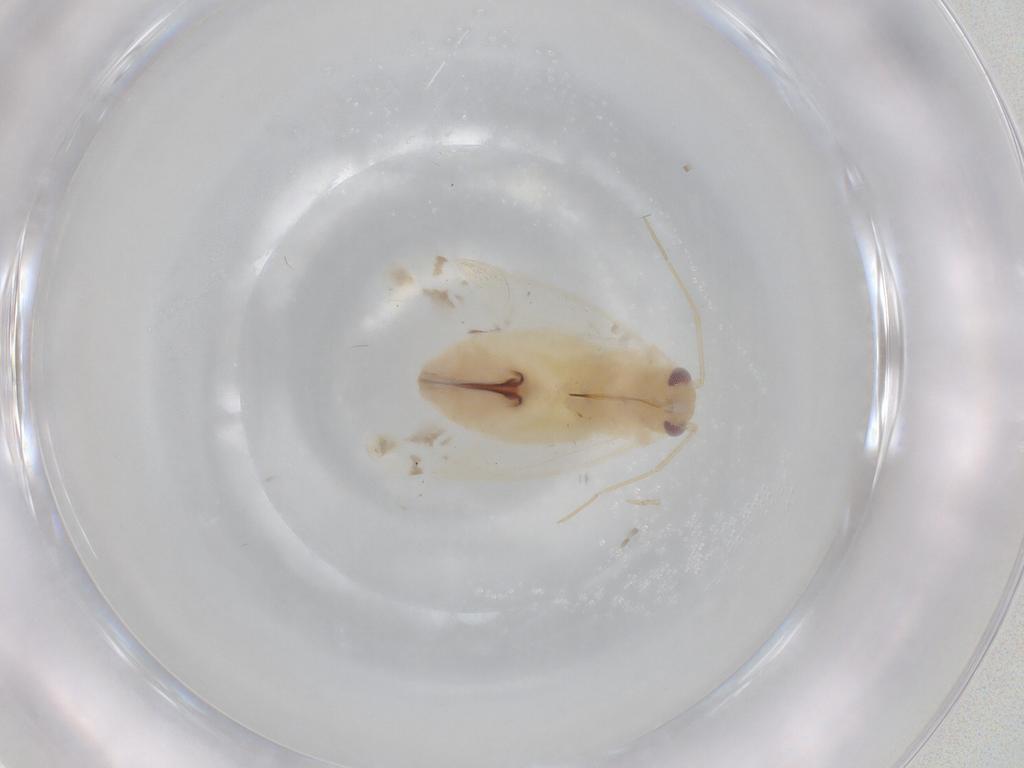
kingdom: Animalia
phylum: Arthropoda
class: Insecta
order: Hemiptera
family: Miridae
